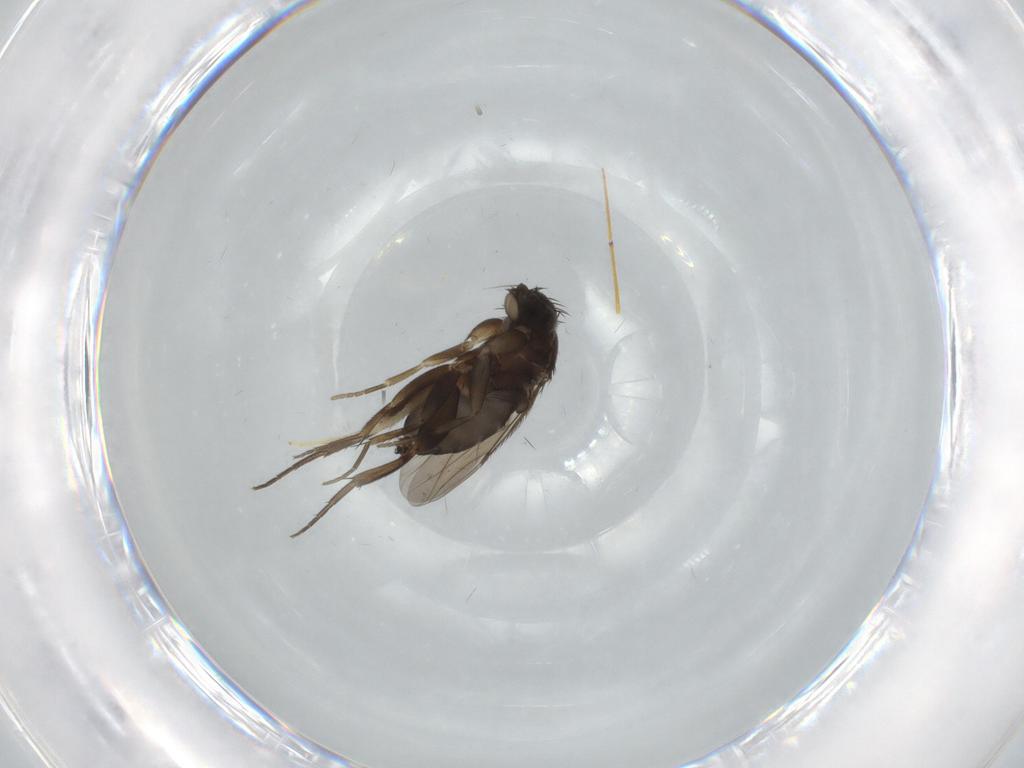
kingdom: Animalia
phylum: Arthropoda
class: Insecta
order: Diptera
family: Phoridae
